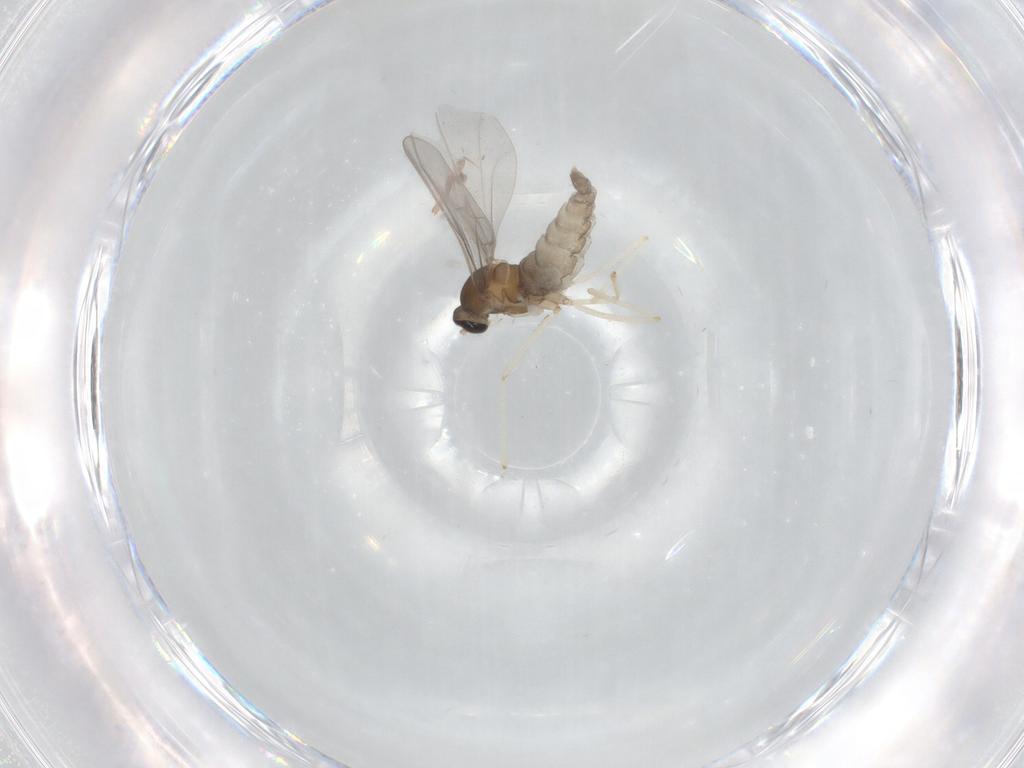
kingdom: Animalia
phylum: Arthropoda
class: Insecta
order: Diptera
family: Cecidomyiidae
